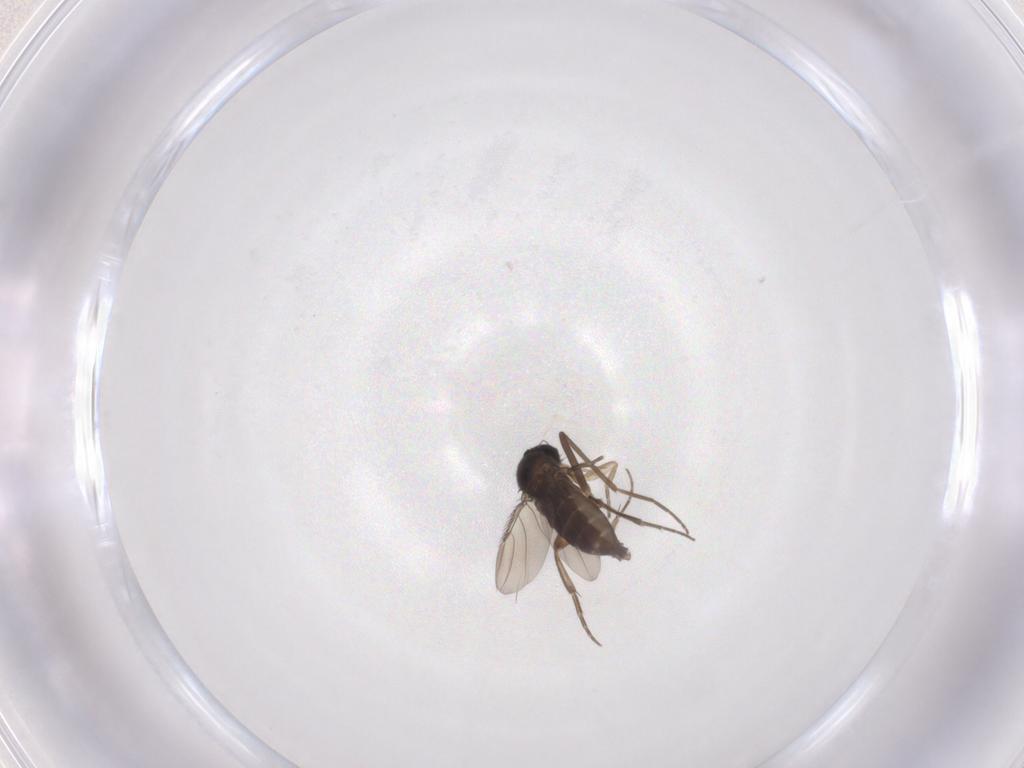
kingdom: Animalia
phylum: Arthropoda
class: Insecta
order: Diptera
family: Phoridae
